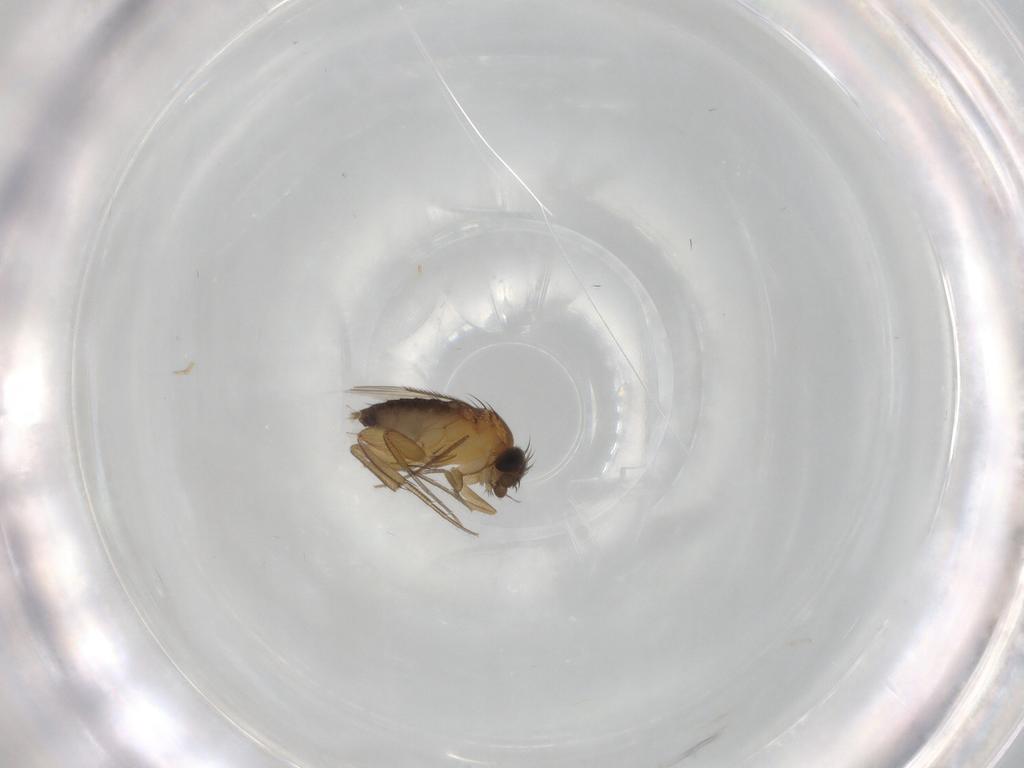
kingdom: Animalia
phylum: Arthropoda
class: Insecta
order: Diptera
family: Phoridae
